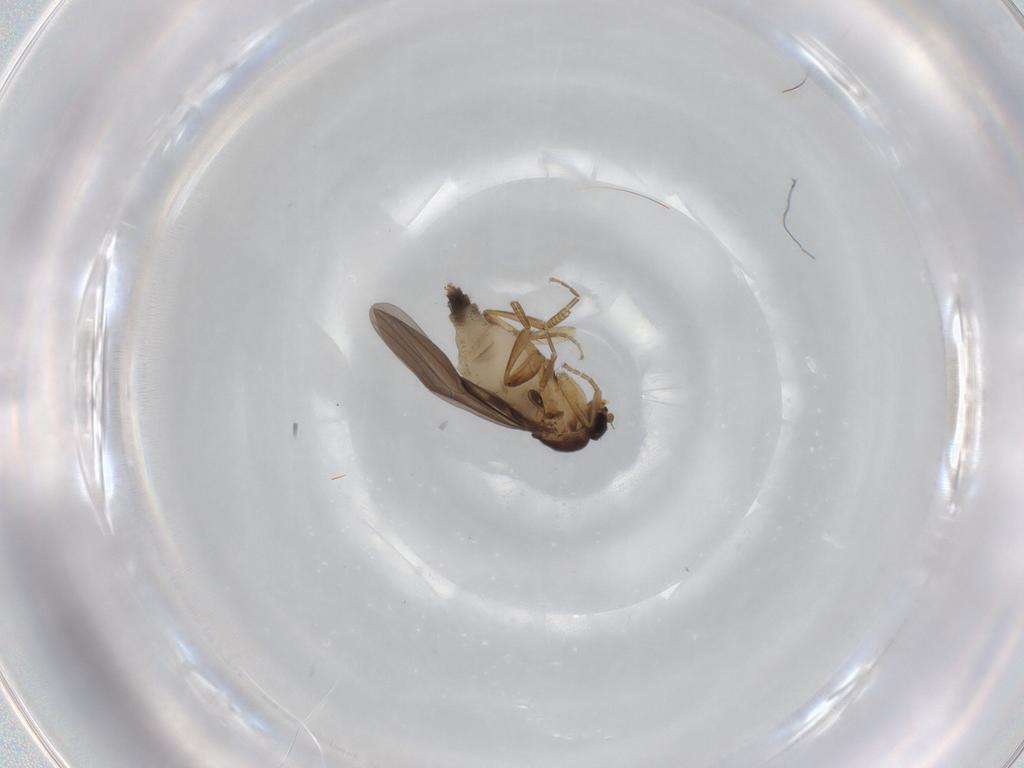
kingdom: Animalia
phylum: Arthropoda
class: Insecta
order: Diptera
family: Phoridae
